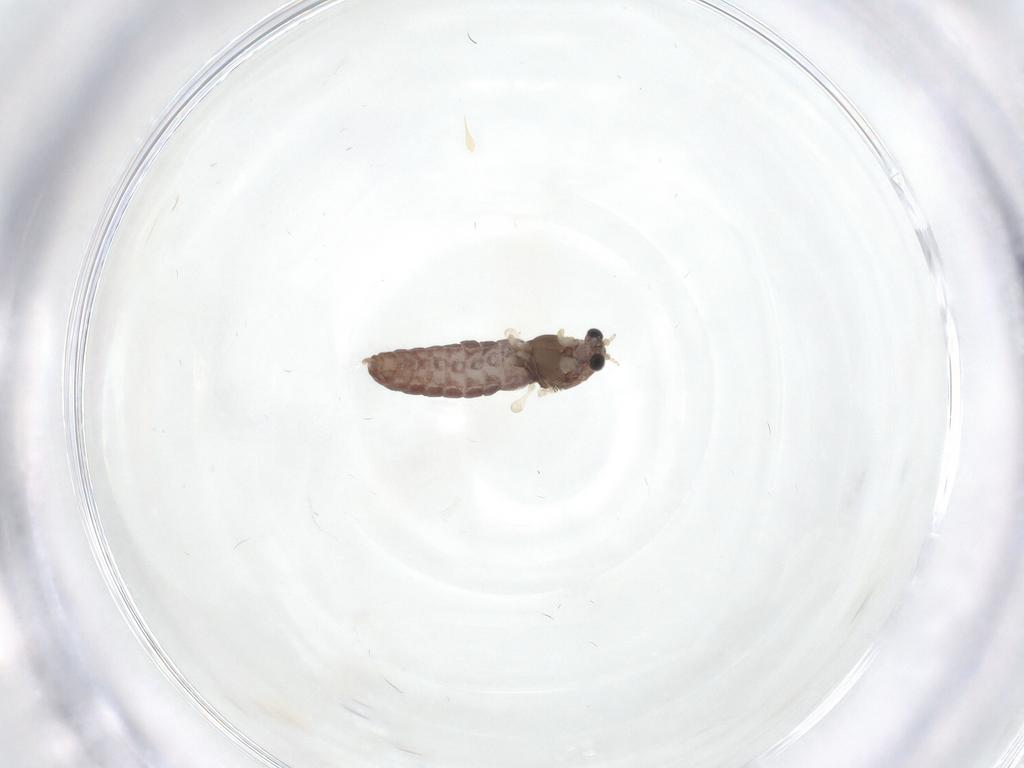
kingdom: Animalia
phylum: Arthropoda
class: Insecta
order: Diptera
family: Chironomidae
